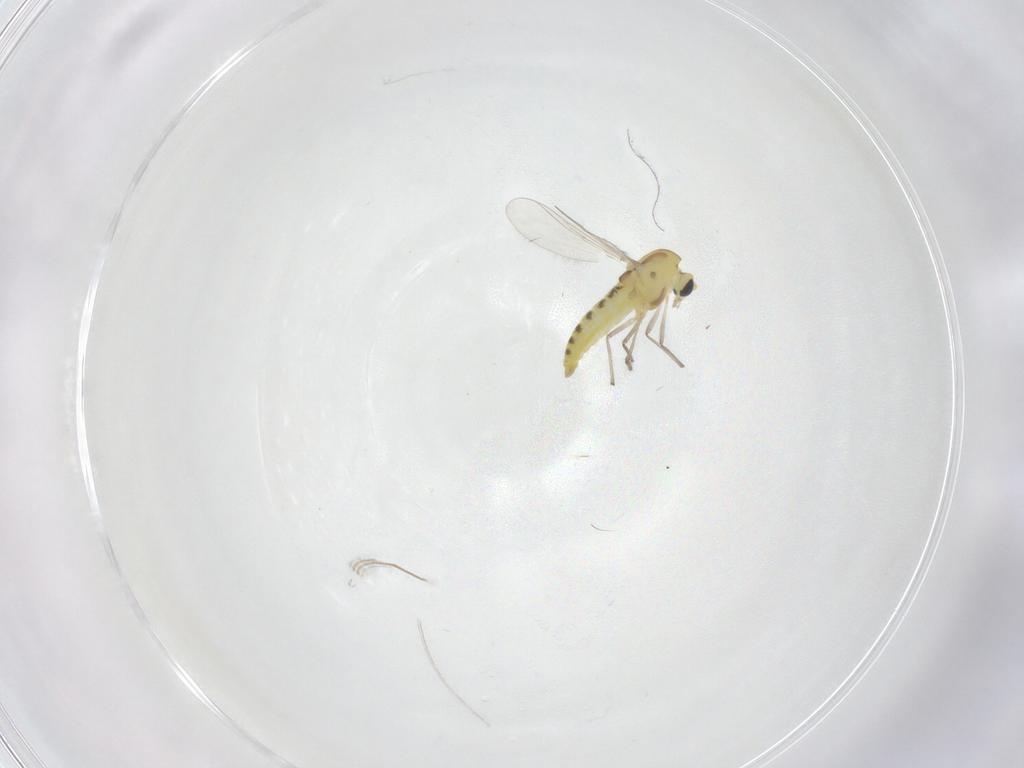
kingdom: Animalia
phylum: Arthropoda
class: Insecta
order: Diptera
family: Chironomidae
